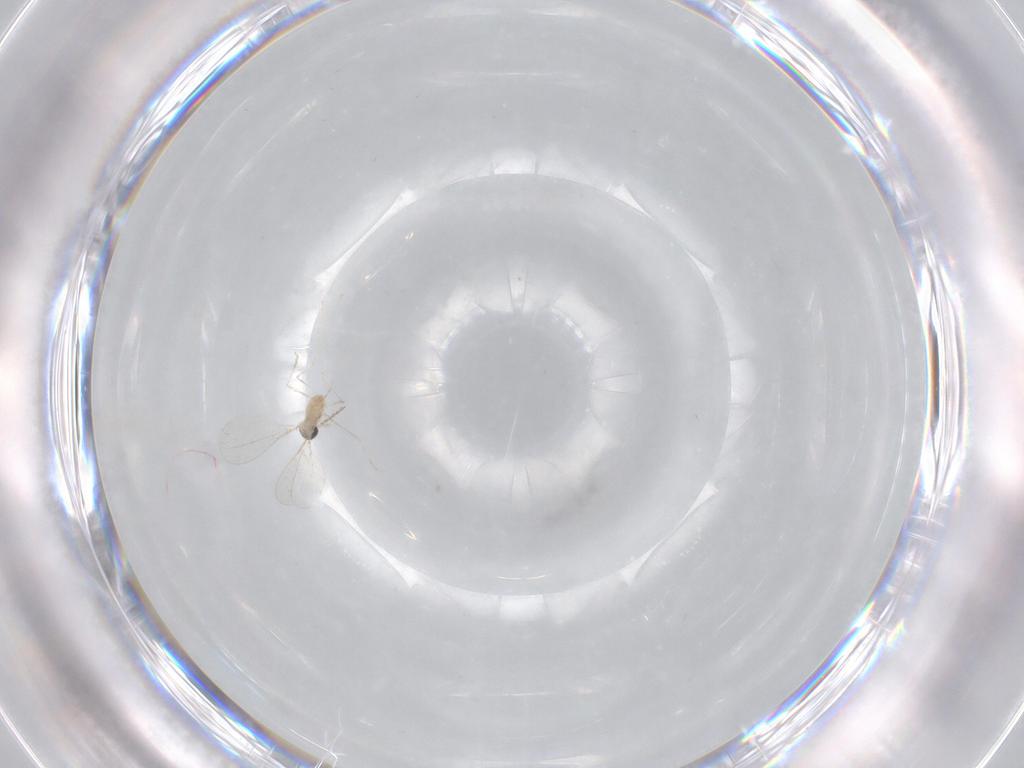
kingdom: Animalia
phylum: Arthropoda
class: Insecta
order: Diptera
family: Cecidomyiidae
